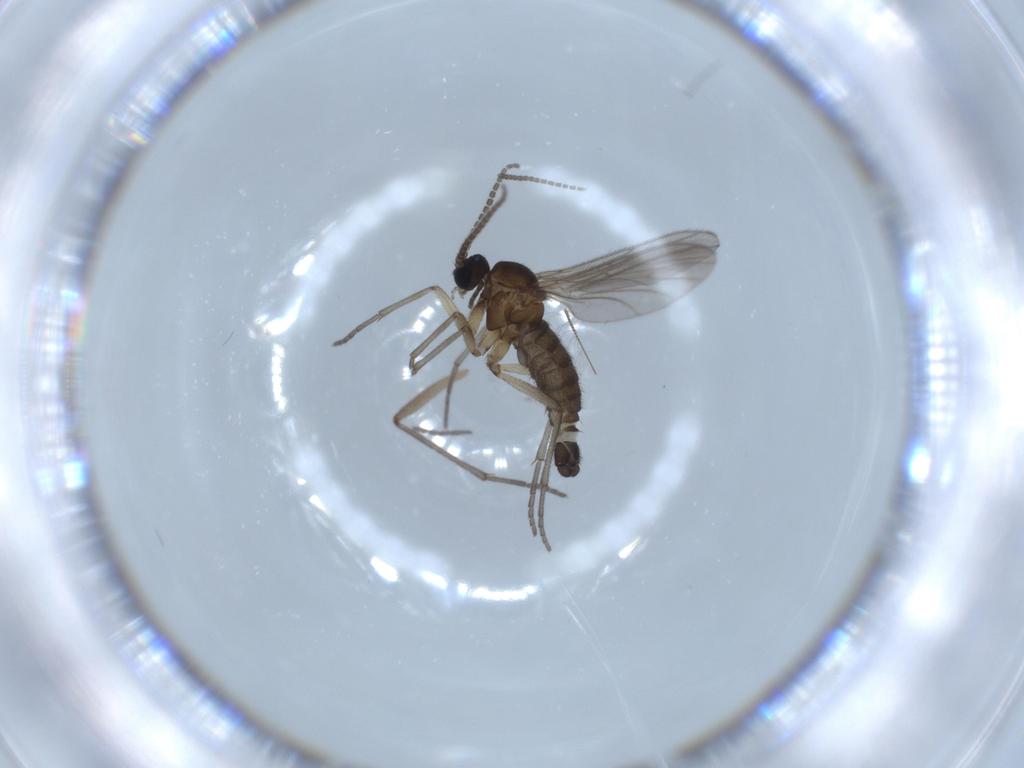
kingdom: Animalia
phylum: Arthropoda
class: Insecta
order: Diptera
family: Sciaridae
